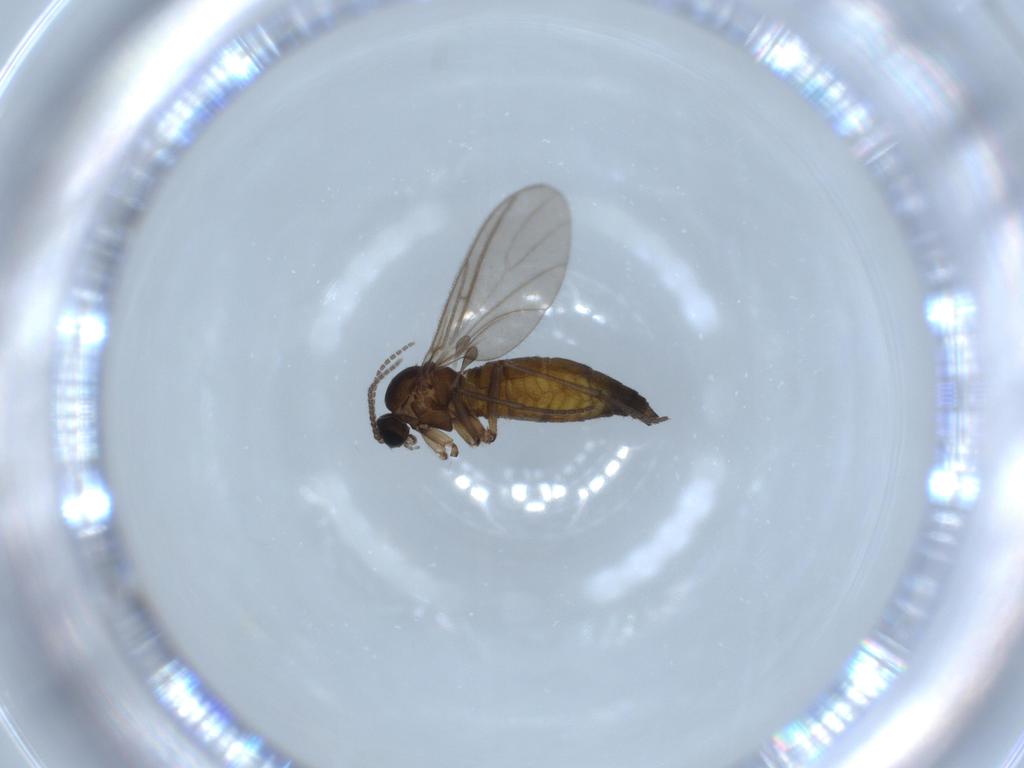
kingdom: Animalia
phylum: Arthropoda
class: Insecta
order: Diptera
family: Sciaridae
